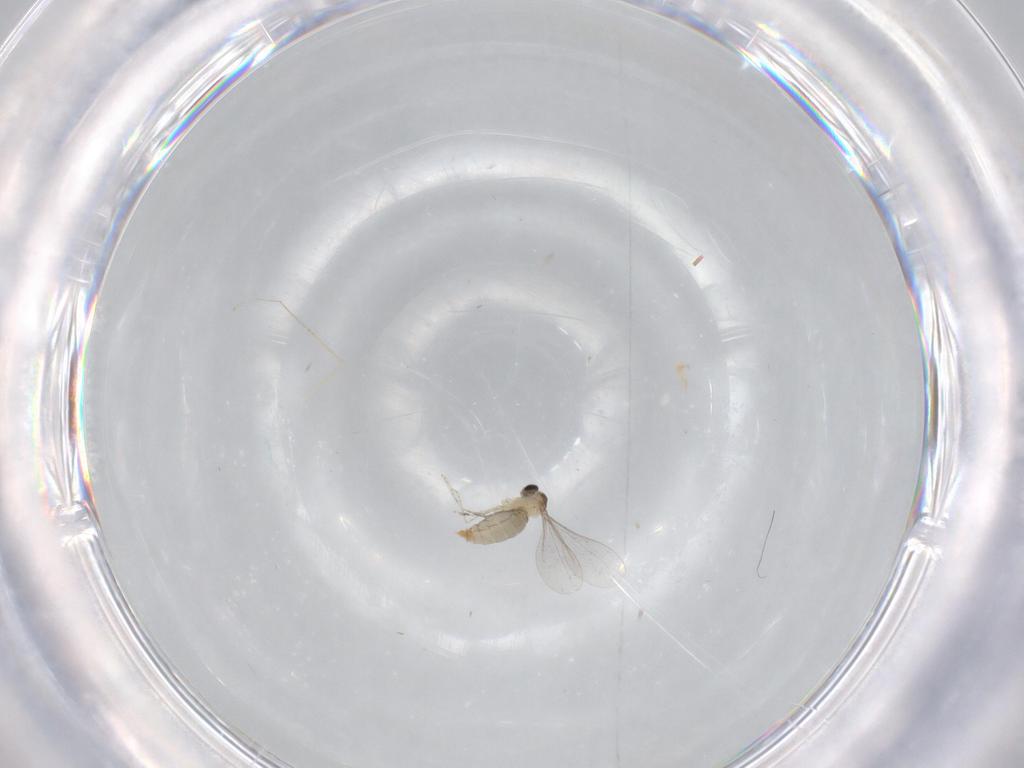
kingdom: Animalia
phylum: Arthropoda
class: Insecta
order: Diptera
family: Cecidomyiidae
